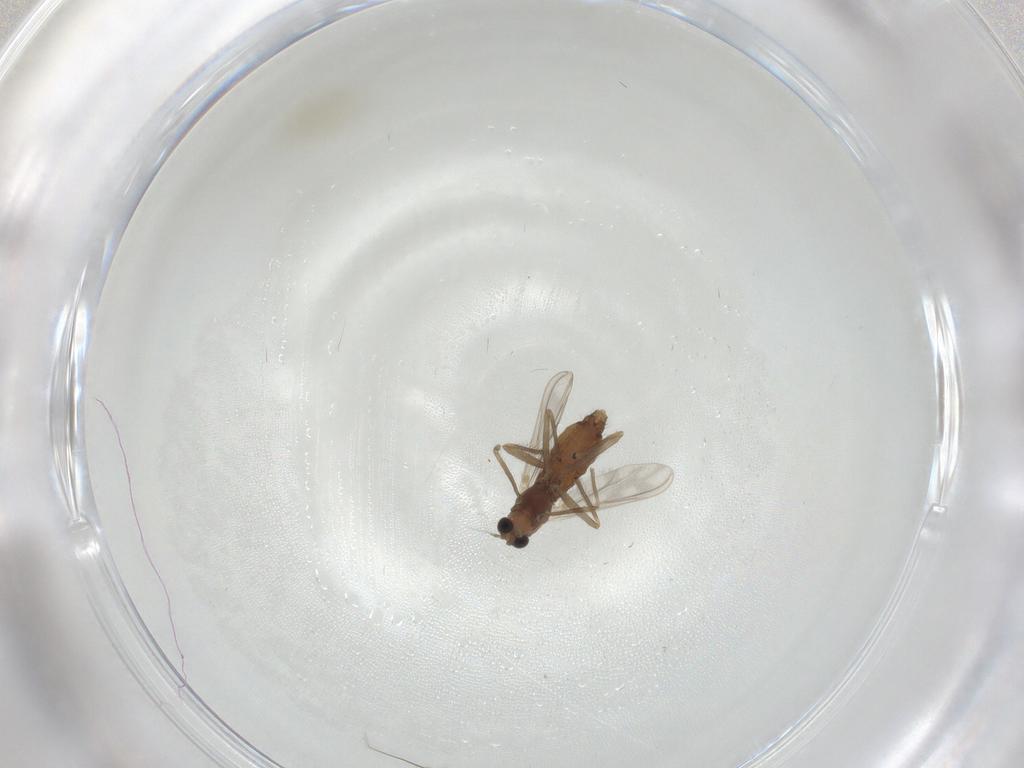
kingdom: Animalia
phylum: Arthropoda
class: Insecta
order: Diptera
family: Chironomidae
